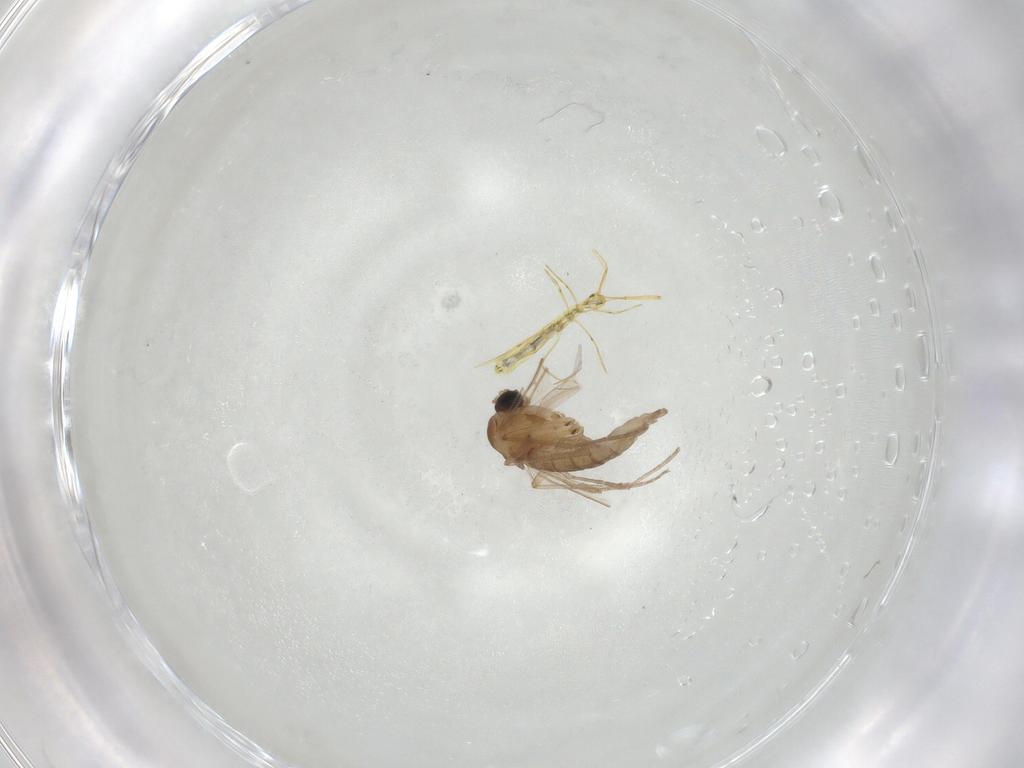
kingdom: Animalia
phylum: Arthropoda
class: Insecta
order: Diptera
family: Sciaridae
